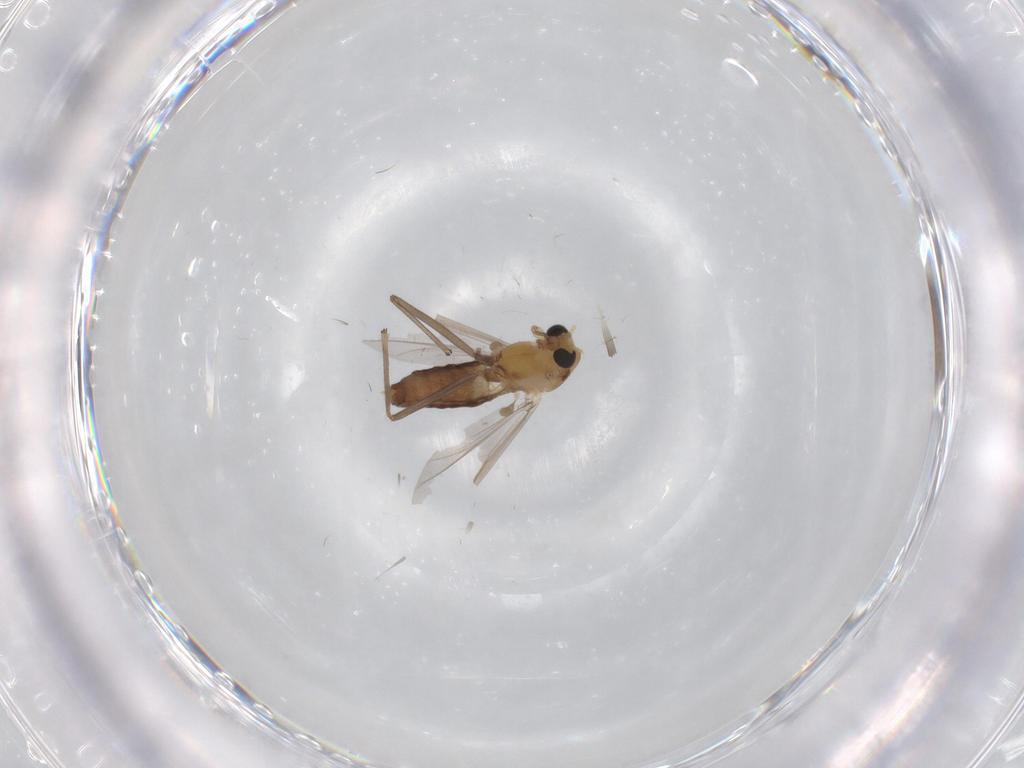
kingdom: Animalia
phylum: Arthropoda
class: Insecta
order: Diptera
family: Chironomidae
